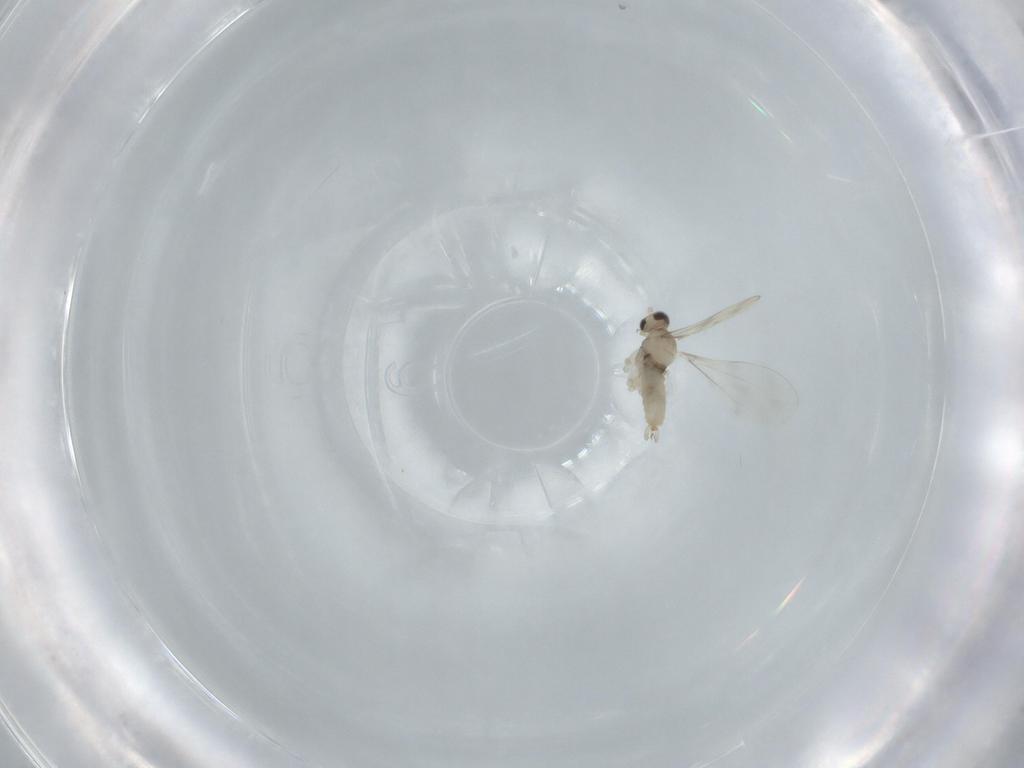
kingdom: Animalia
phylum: Arthropoda
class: Insecta
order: Diptera
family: Cecidomyiidae
